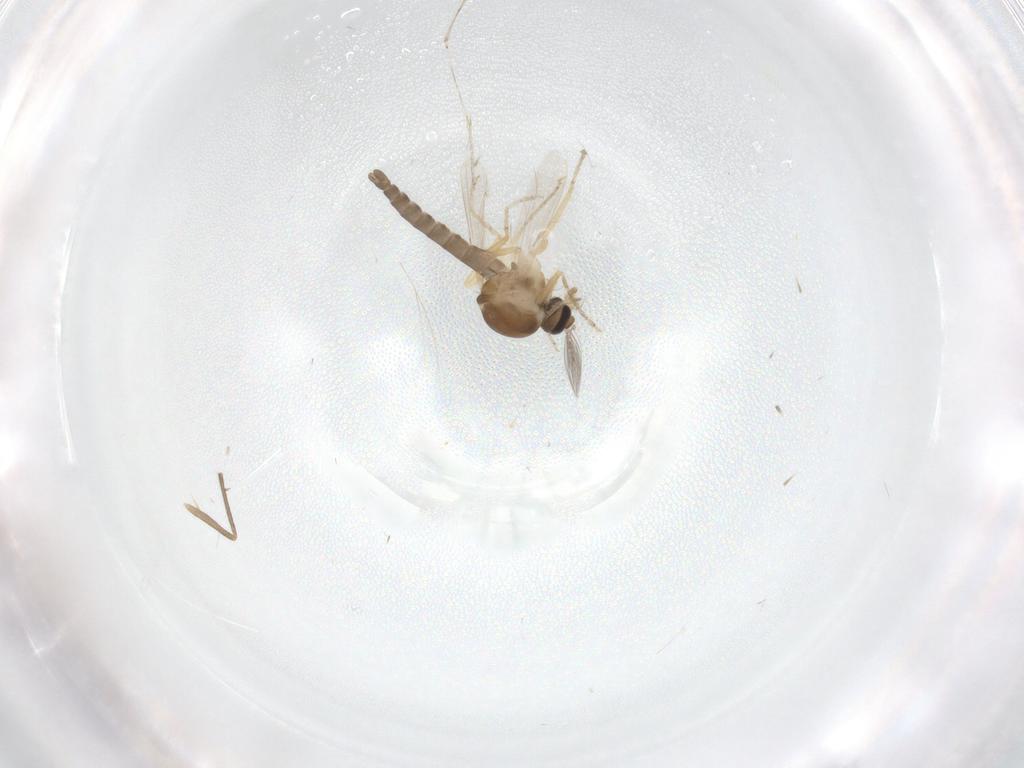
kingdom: Animalia
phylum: Arthropoda
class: Insecta
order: Diptera
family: Ceratopogonidae
